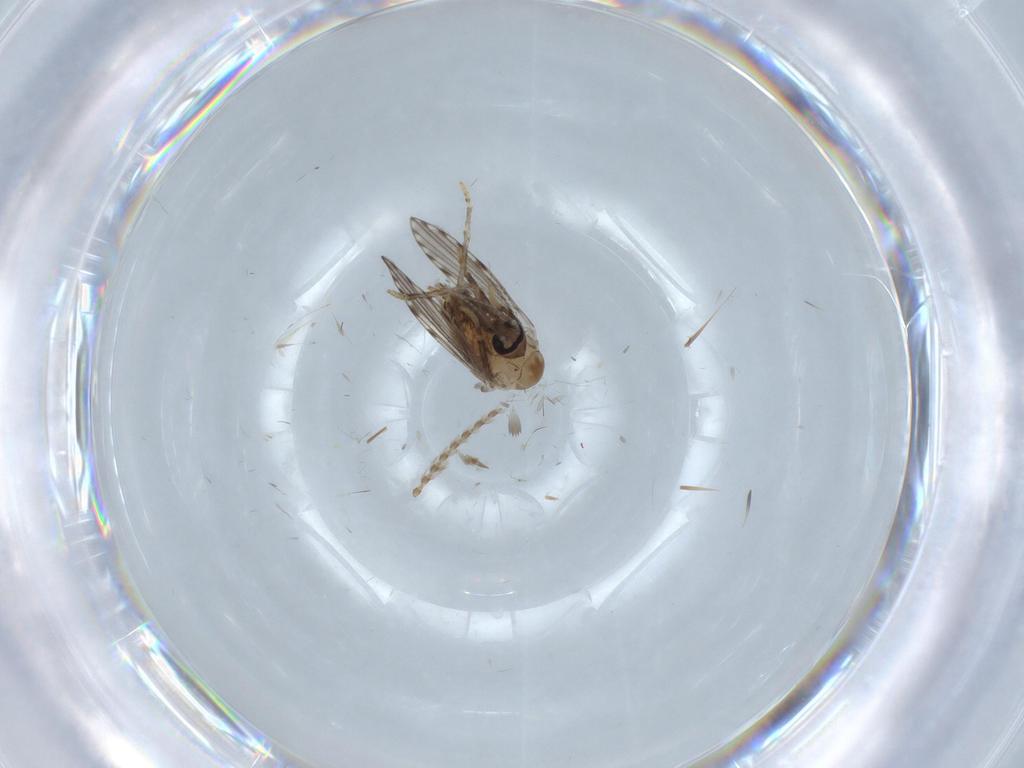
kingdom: Animalia
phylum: Arthropoda
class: Insecta
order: Diptera
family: Psychodidae
